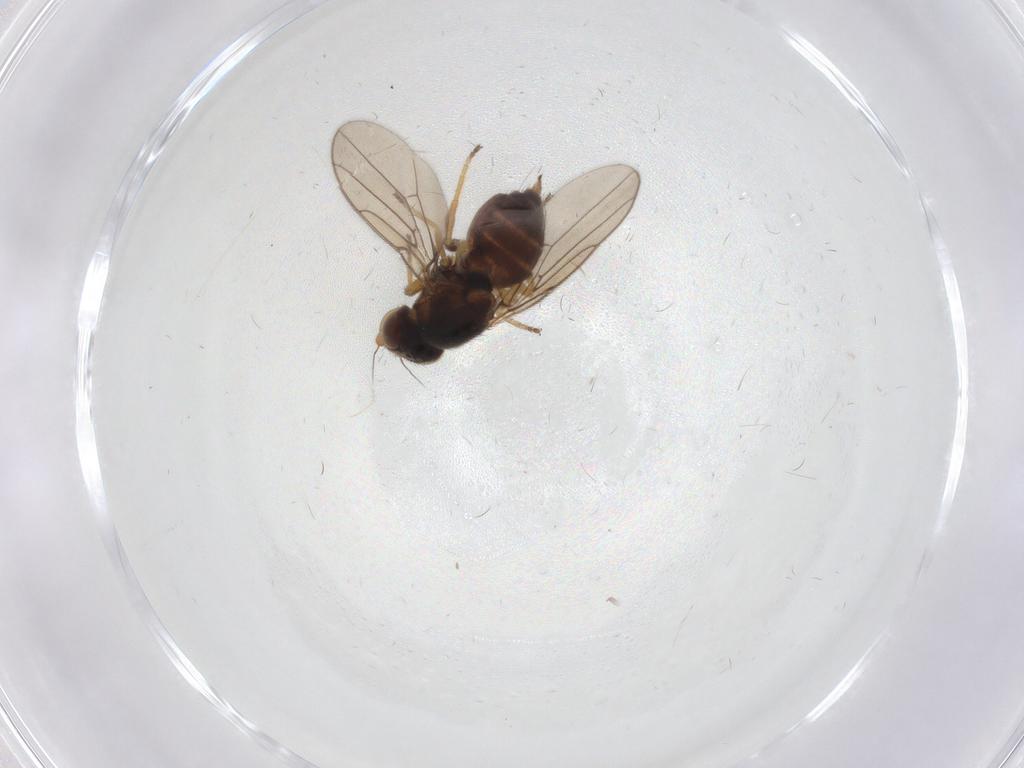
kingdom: Animalia
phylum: Arthropoda
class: Insecta
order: Diptera
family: Chloropidae
